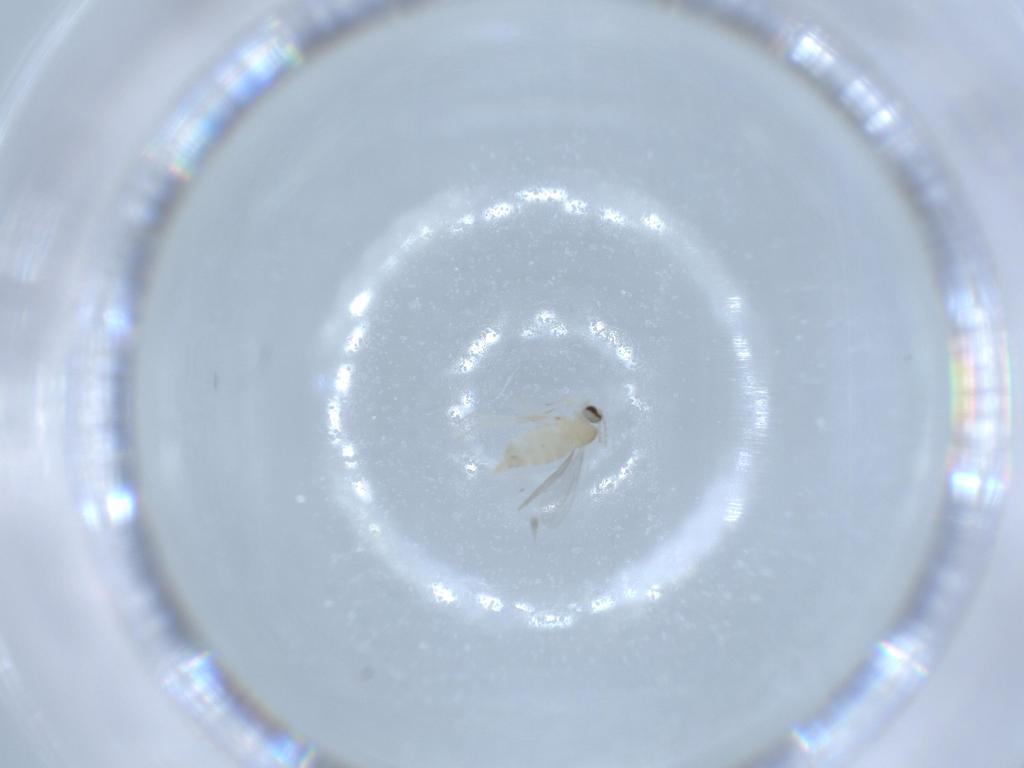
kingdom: Animalia
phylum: Arthropoda
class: Insecta
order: Diptera
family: Cecidomyiidae
